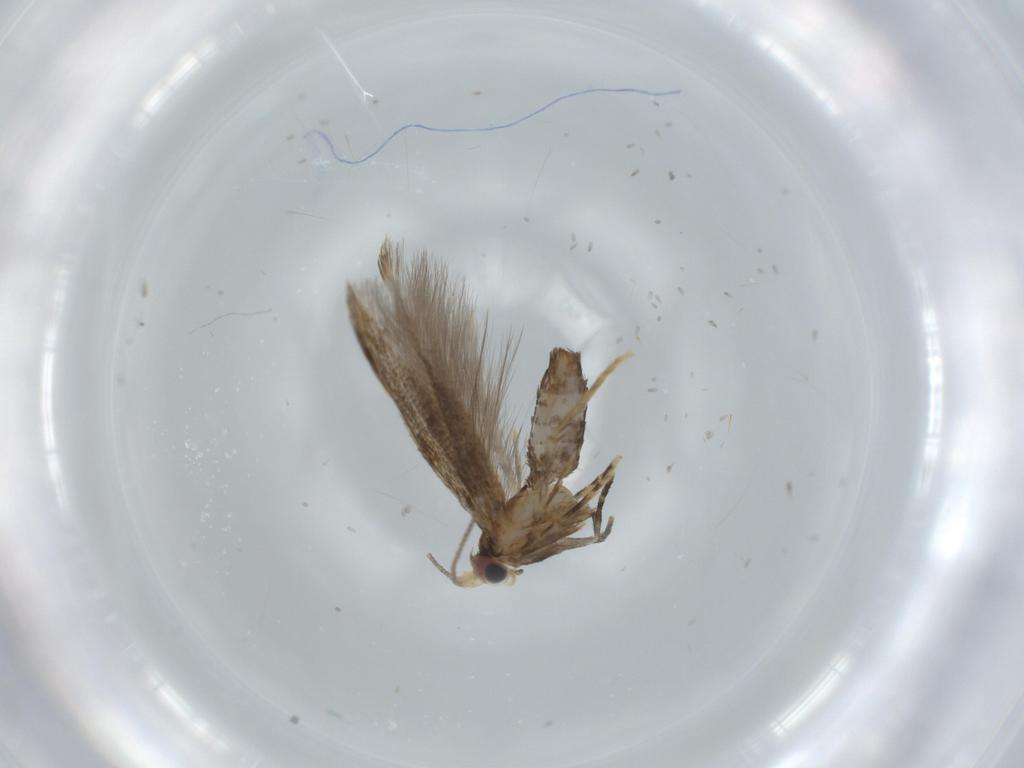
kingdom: Animalia
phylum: Arthropoda
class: Insecta
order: Lepidoptera
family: Tineidae
